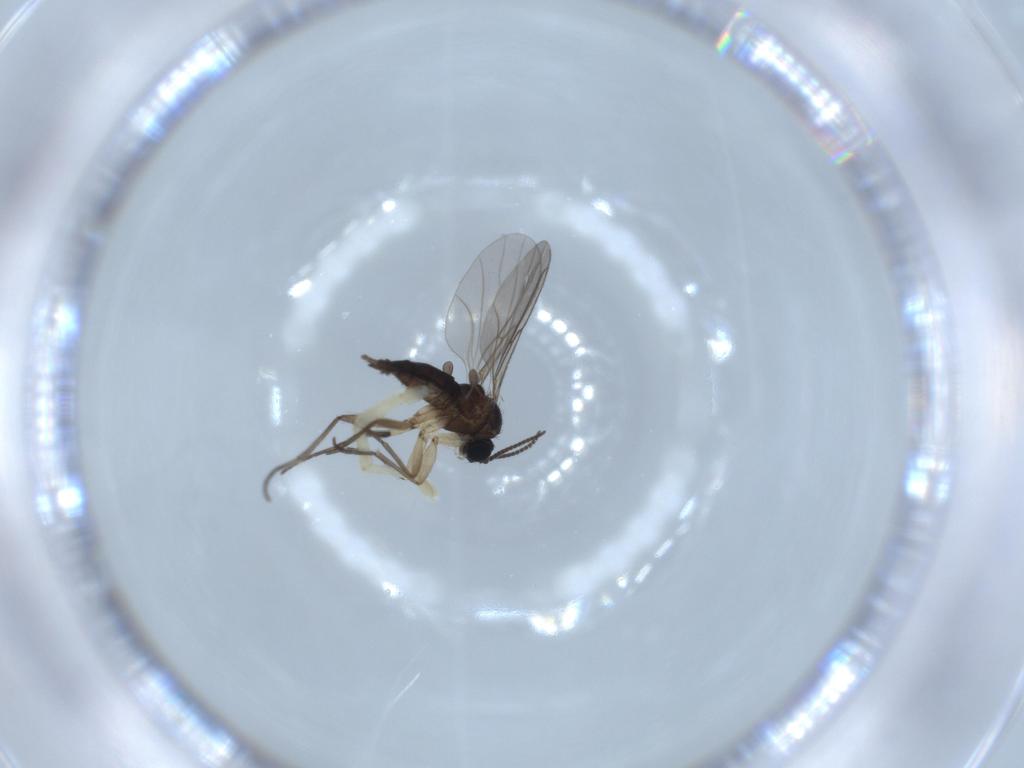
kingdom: Animalia
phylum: Arthropoda
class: Insecta
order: Diptera
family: Sciaridae
